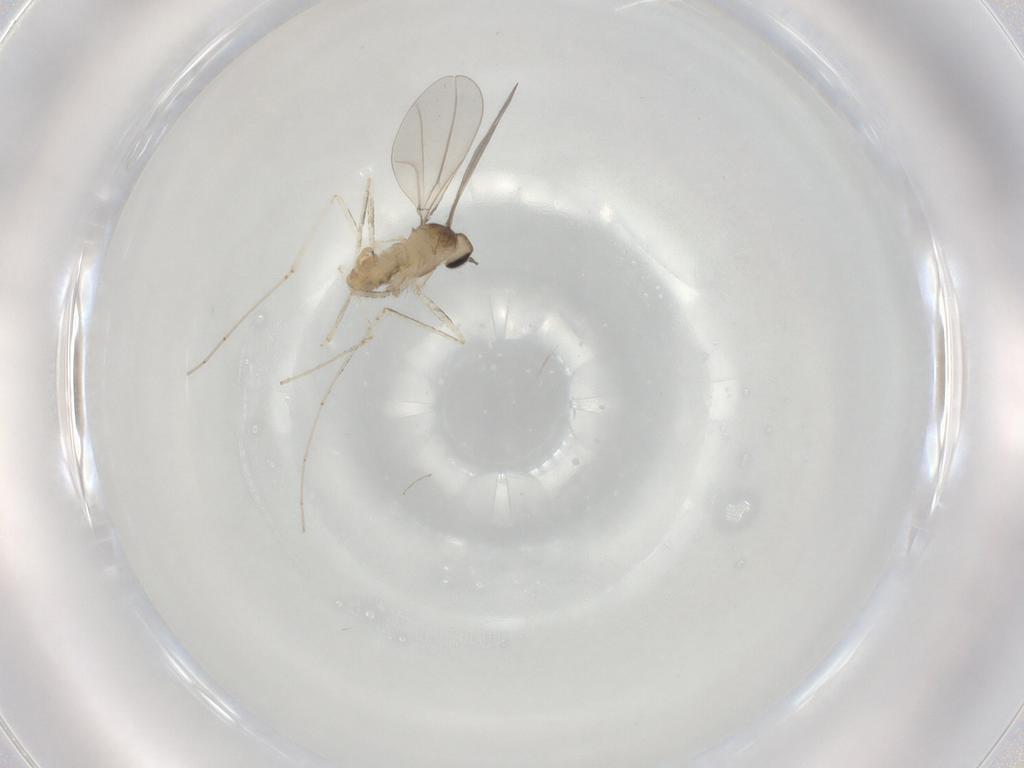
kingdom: Animalia
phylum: Arthropoda
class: Insecta
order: Diptera
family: Cecidomyiidae
